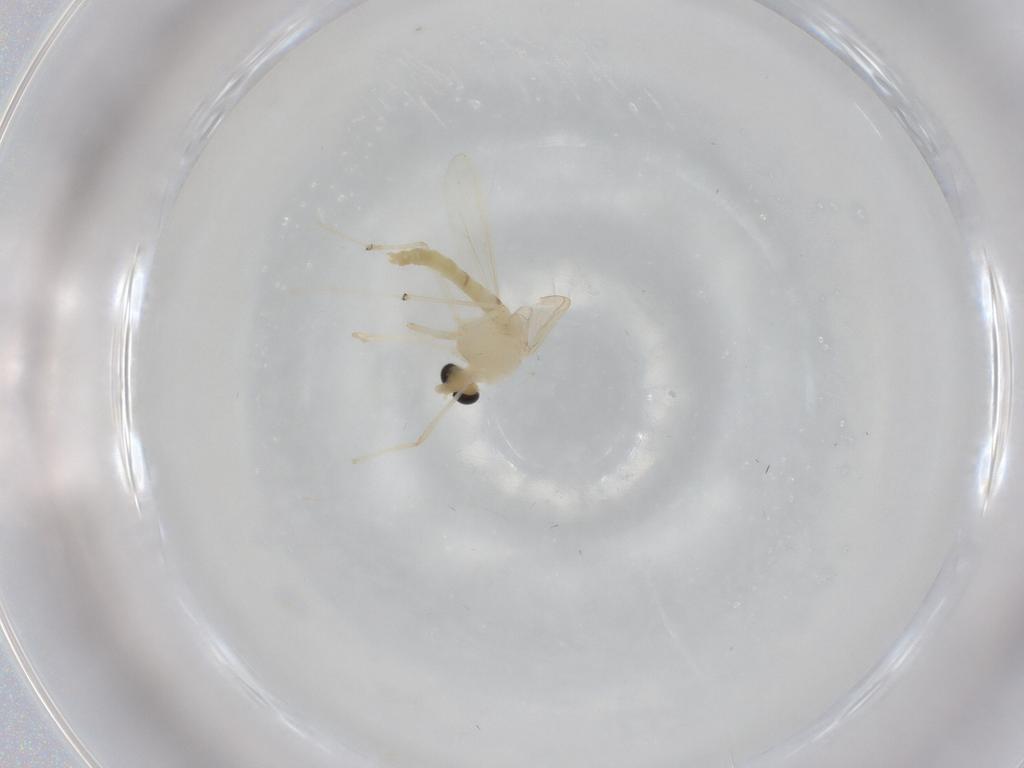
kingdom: Animalia
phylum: Arthropoda
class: Insecta
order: Diptera
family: Chironomidae
